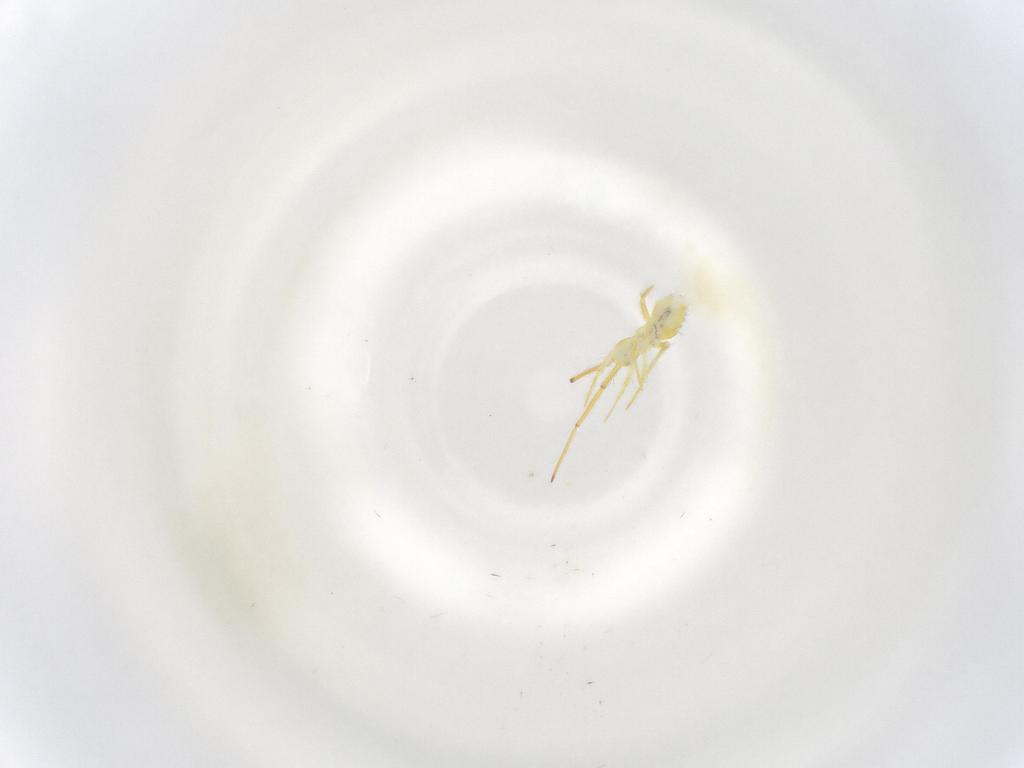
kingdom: Animalia
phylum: Arthropoda
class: Collembola
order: Entomobryomorpha
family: Entomobryidae
